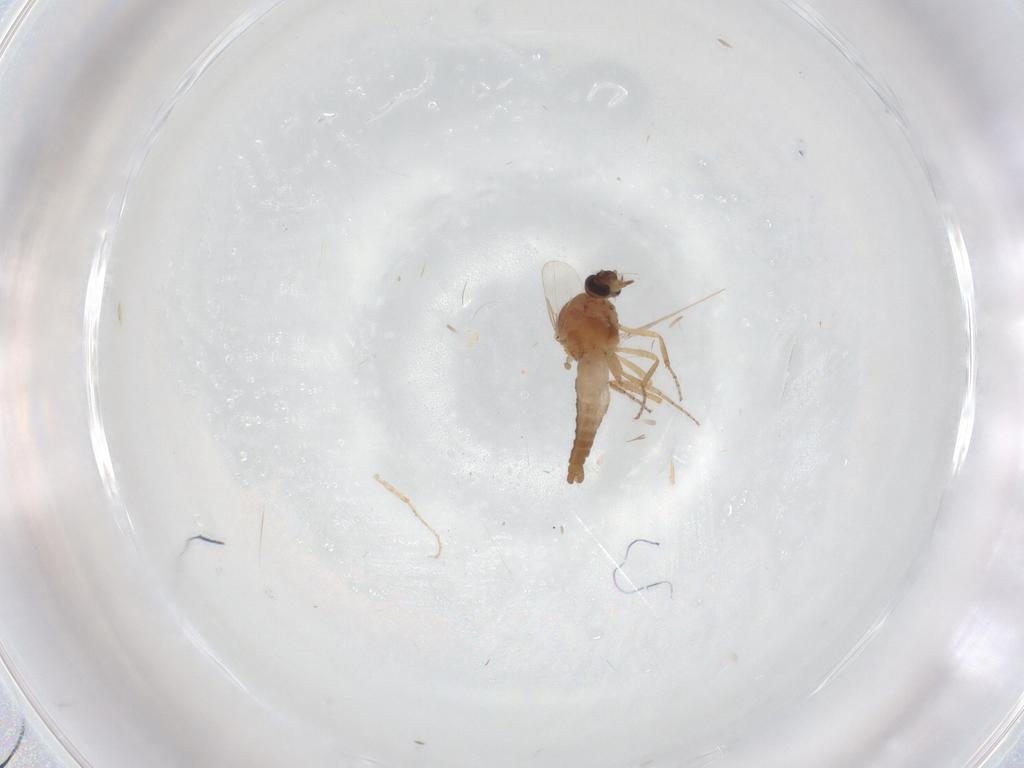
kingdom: Animalia
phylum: Arthropoda
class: Insecta
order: Diptera
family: Ceratopogonidae
